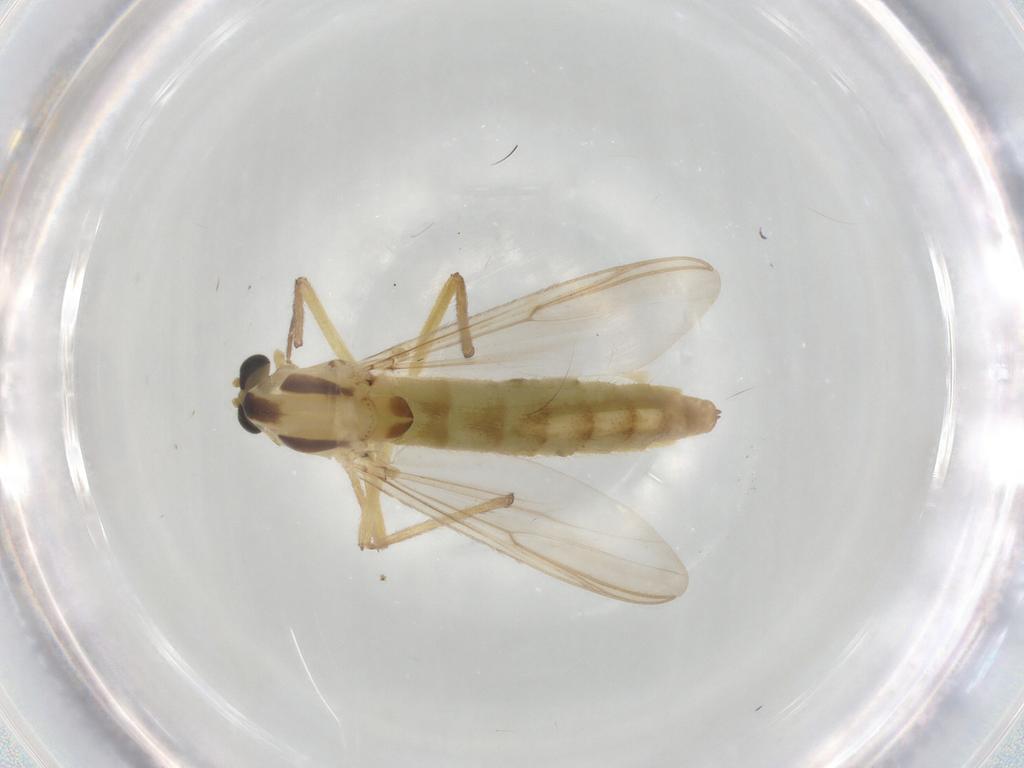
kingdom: Animalia
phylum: Arthropoda
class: Insecta
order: Diptera
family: Chironomidae
